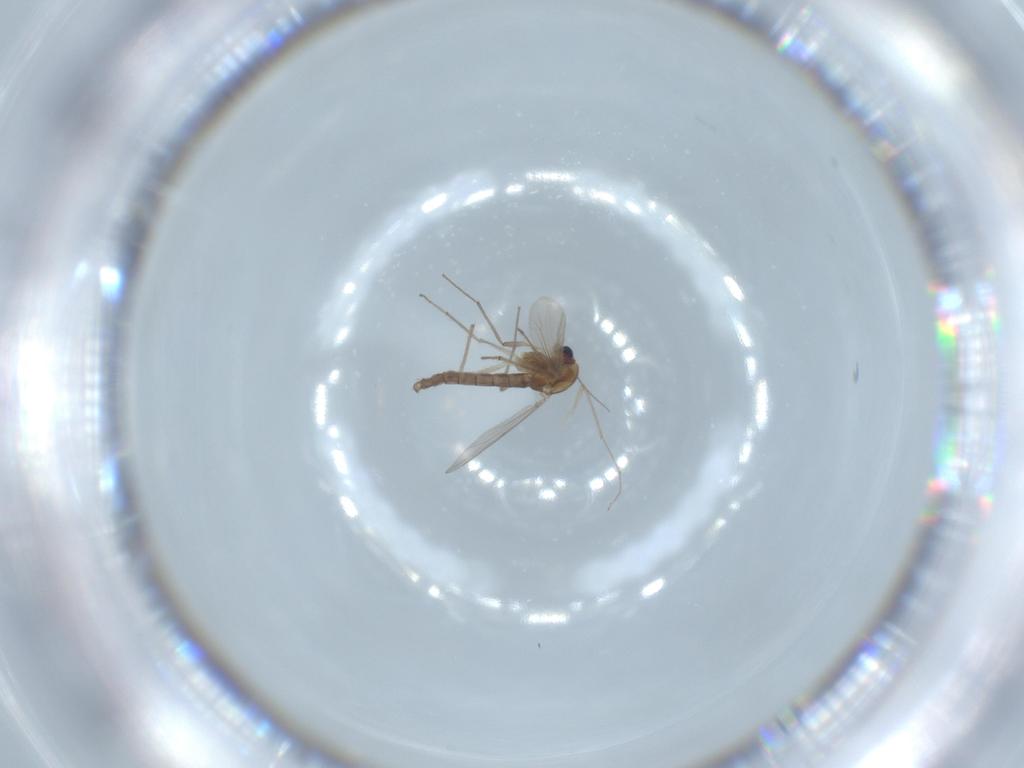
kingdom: Animalia
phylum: Arthropoda
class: Insecta
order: Diptera
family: Chironomidae
